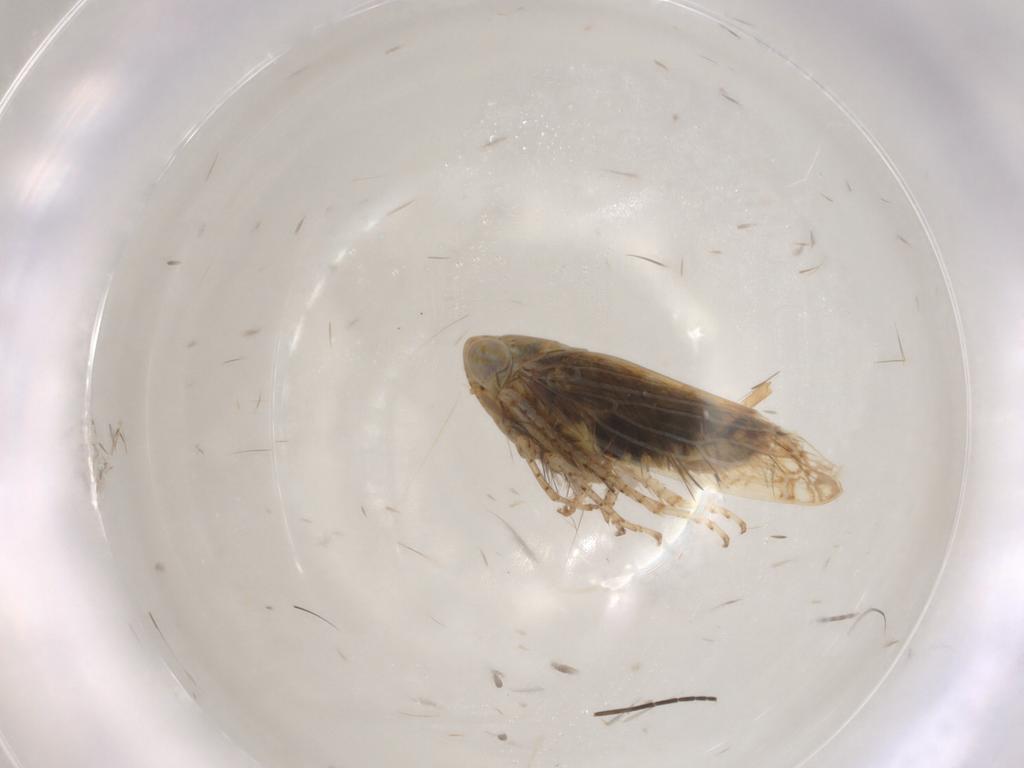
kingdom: Animalia
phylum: Arthropoda
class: Insecta
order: Hemiptera
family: Cicadellidae
